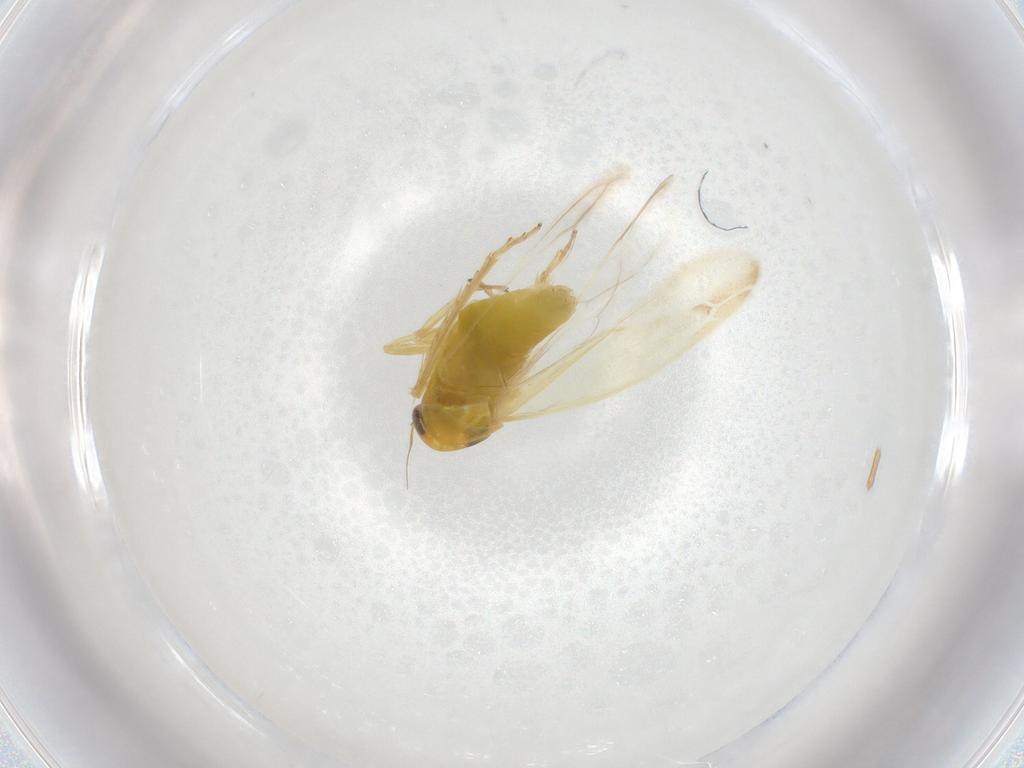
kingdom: Animalia
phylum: Arthropoda
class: Insecta
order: Hemiptera
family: Cicadellidae
